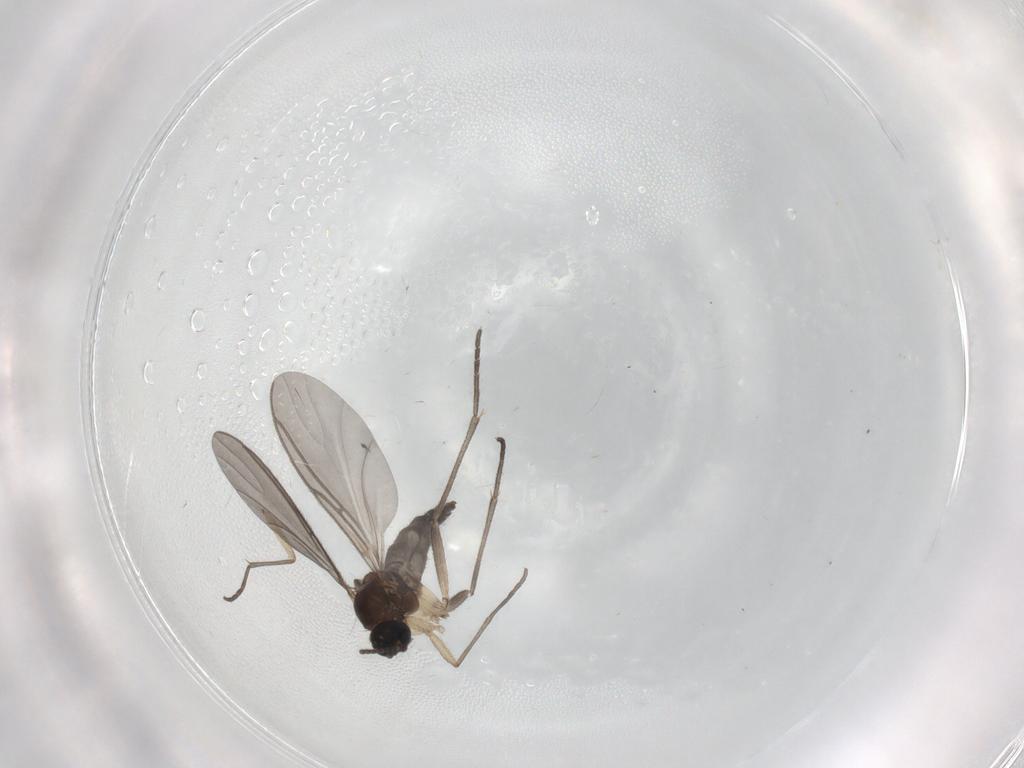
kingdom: Animalia
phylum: Arthropoda
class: Insecta
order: Diptera
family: Sciaridae
